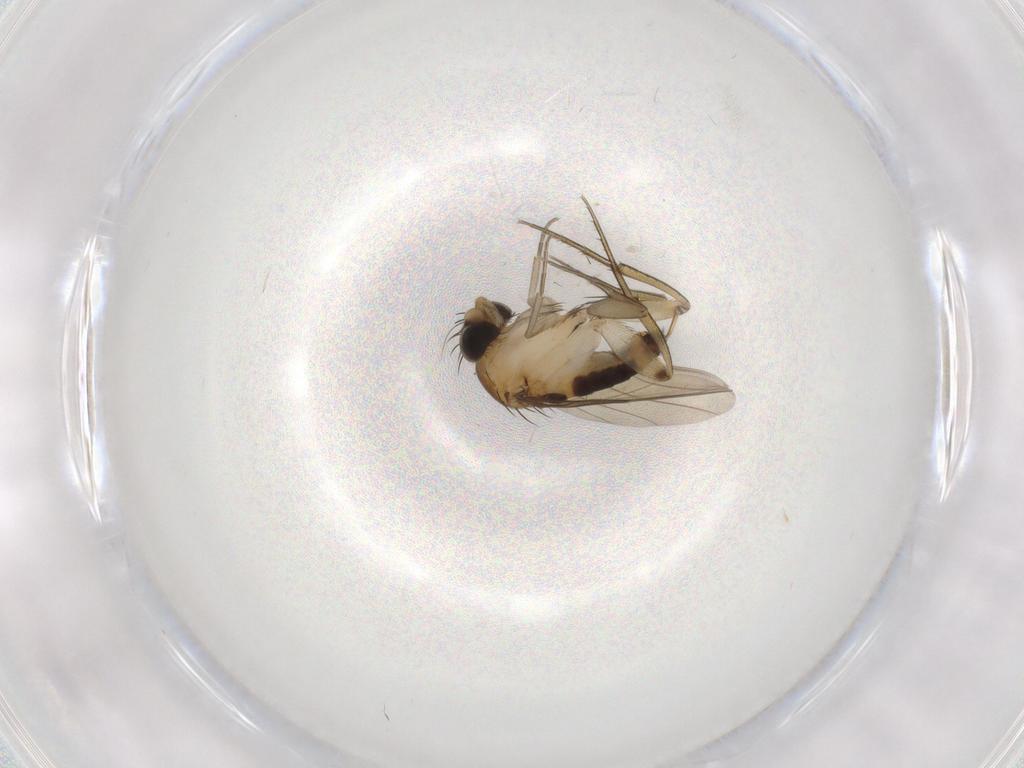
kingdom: Animalia
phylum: Arthropoda
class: Insecta
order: Diptera
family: Phoridae
